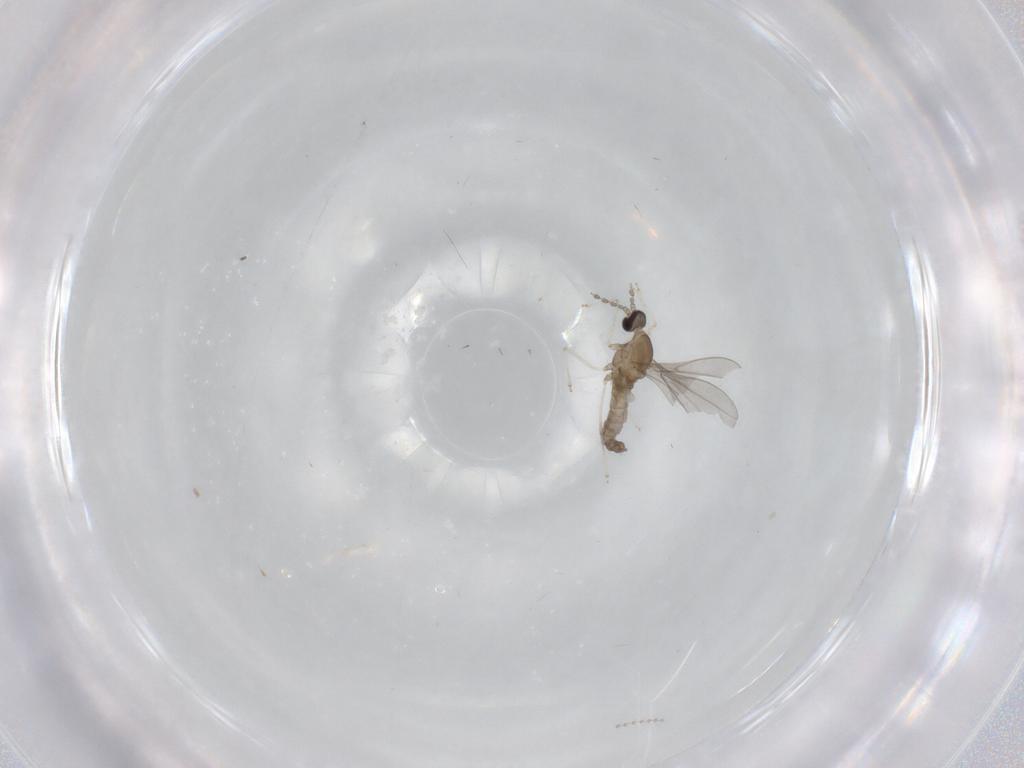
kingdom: Animalia
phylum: Arthropoda
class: Insecta
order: Diptera
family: Cecidomyiidae
